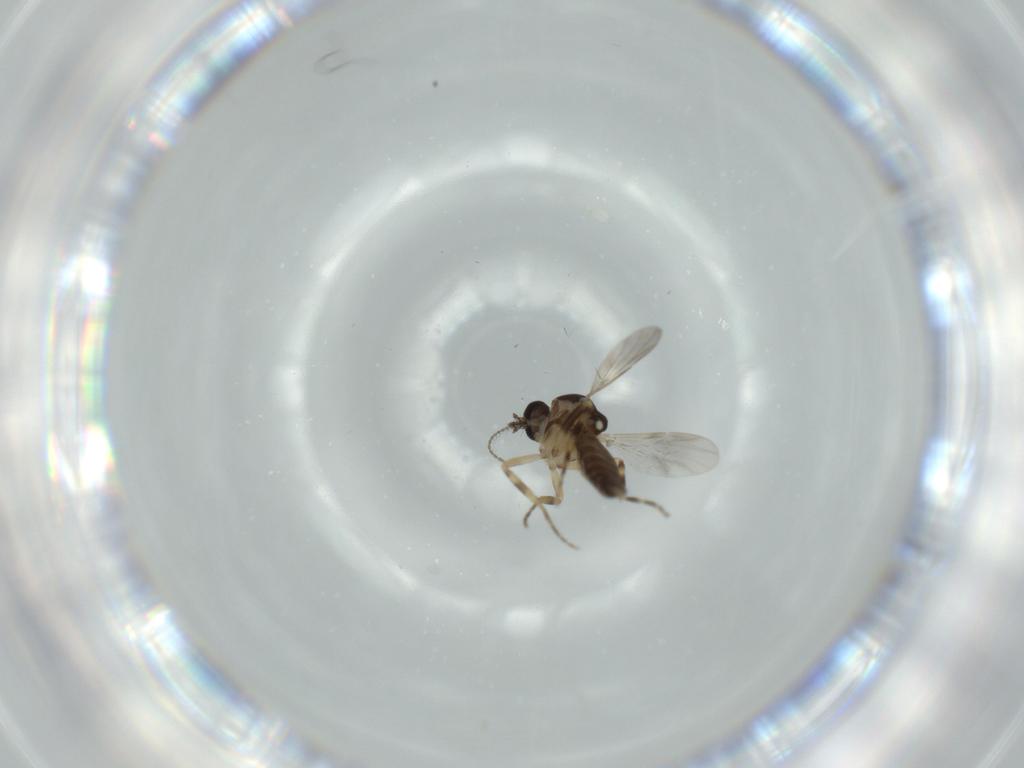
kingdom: Animalia
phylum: Arthropoda
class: Insecta
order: Diptera
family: Ceratopogonidae
